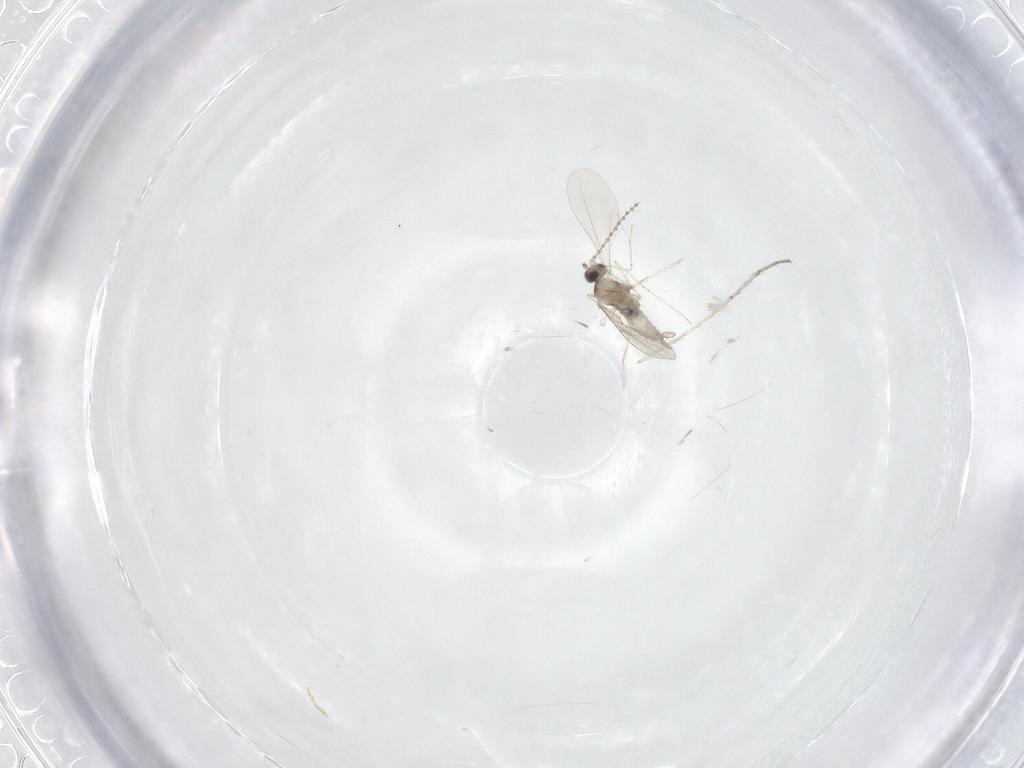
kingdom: Animalia
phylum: Arthropoda
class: Insecta
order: Diptera
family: Cecidomyiidae
